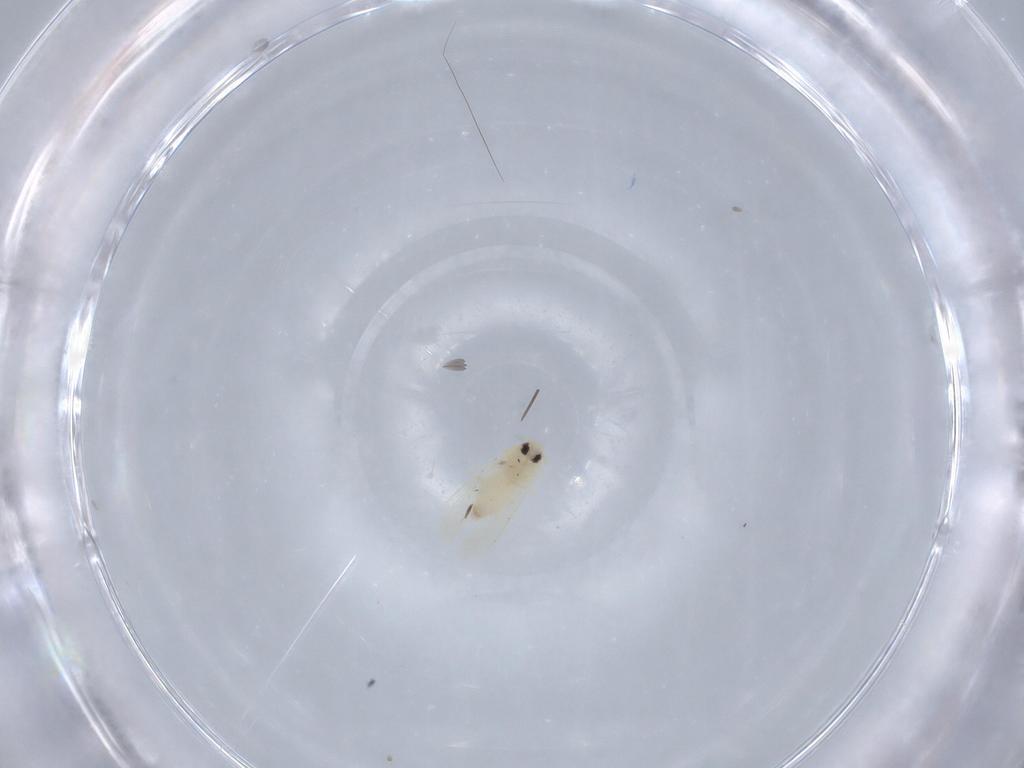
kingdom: Animalia
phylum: Arthropoda
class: Insecta
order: Hemiptera
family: Aleyrodidae
